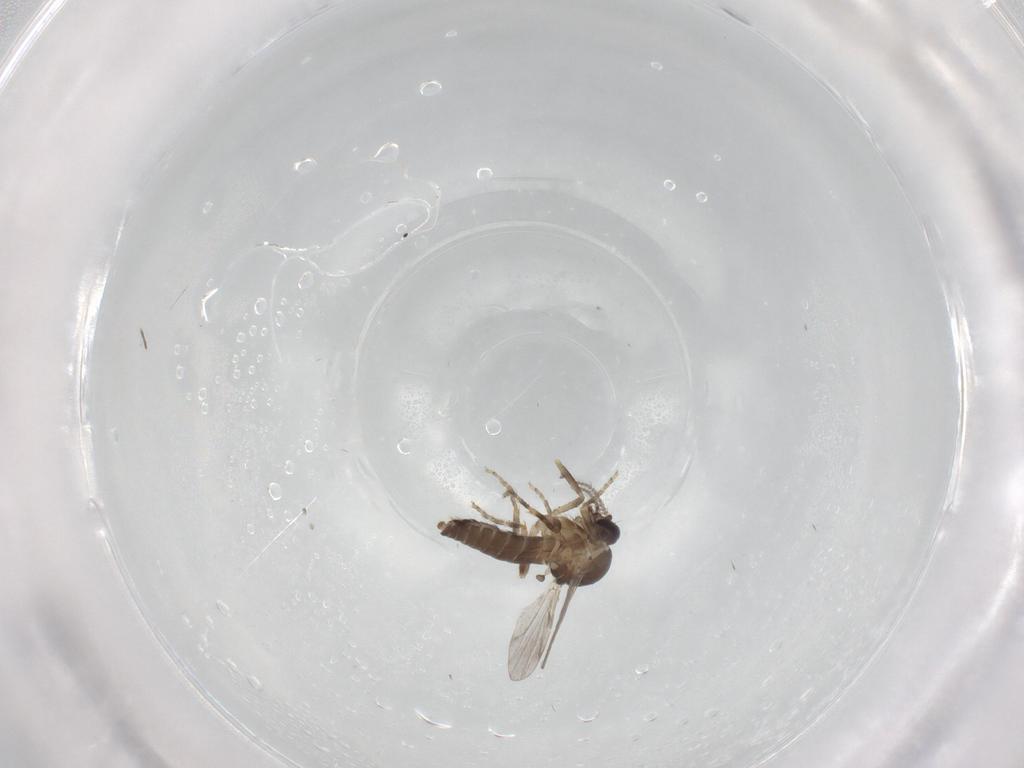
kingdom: Animalia
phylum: Arthropoda
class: Insecta
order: Diptera
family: Ceratopogonidae
